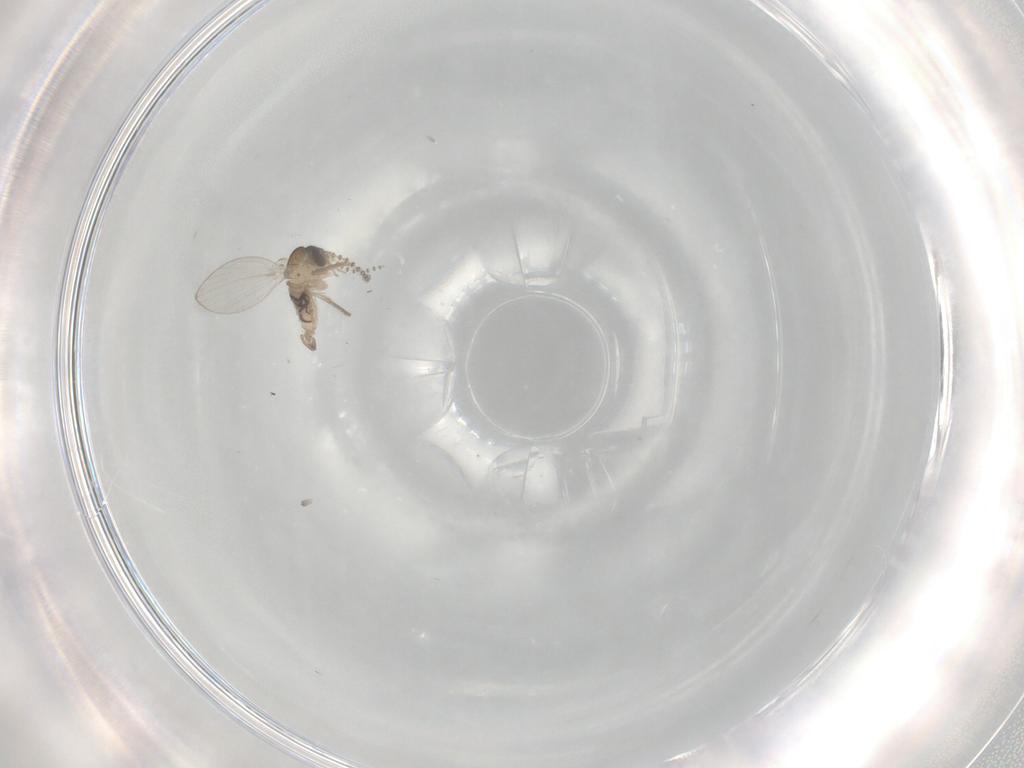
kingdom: Animalia
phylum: Arthropoda
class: Insecta
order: Diptera
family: Psychodidae
